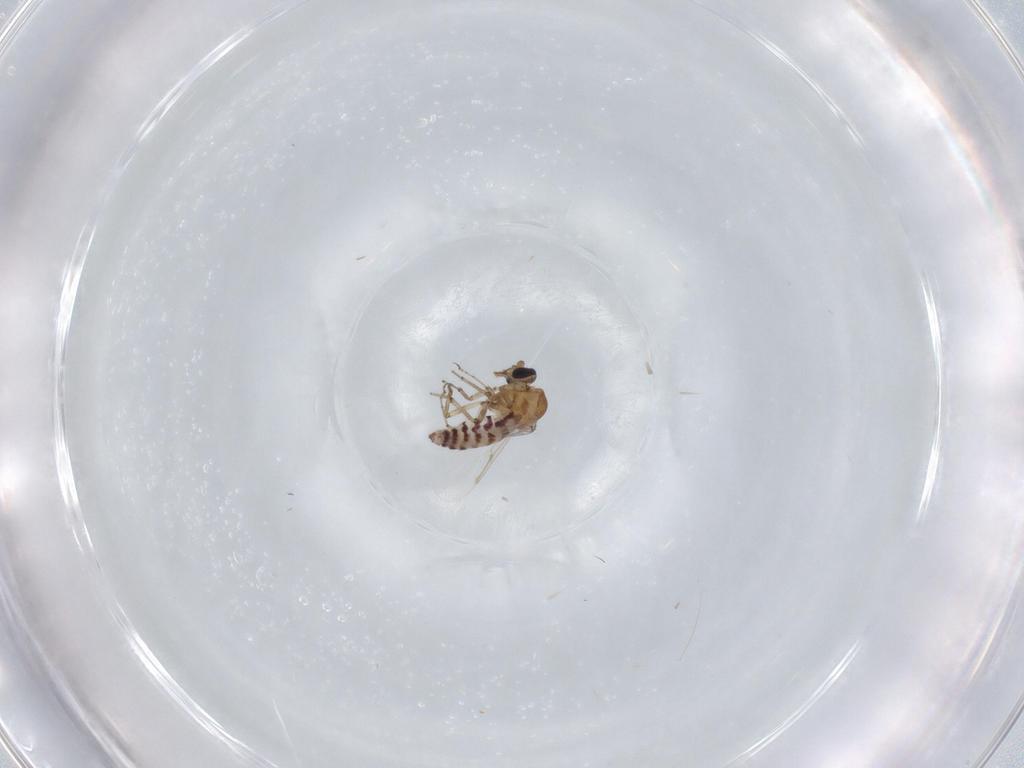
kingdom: Animalia
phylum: Arthropoda
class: Insecta
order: Diptera
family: Ceratopogonidae
